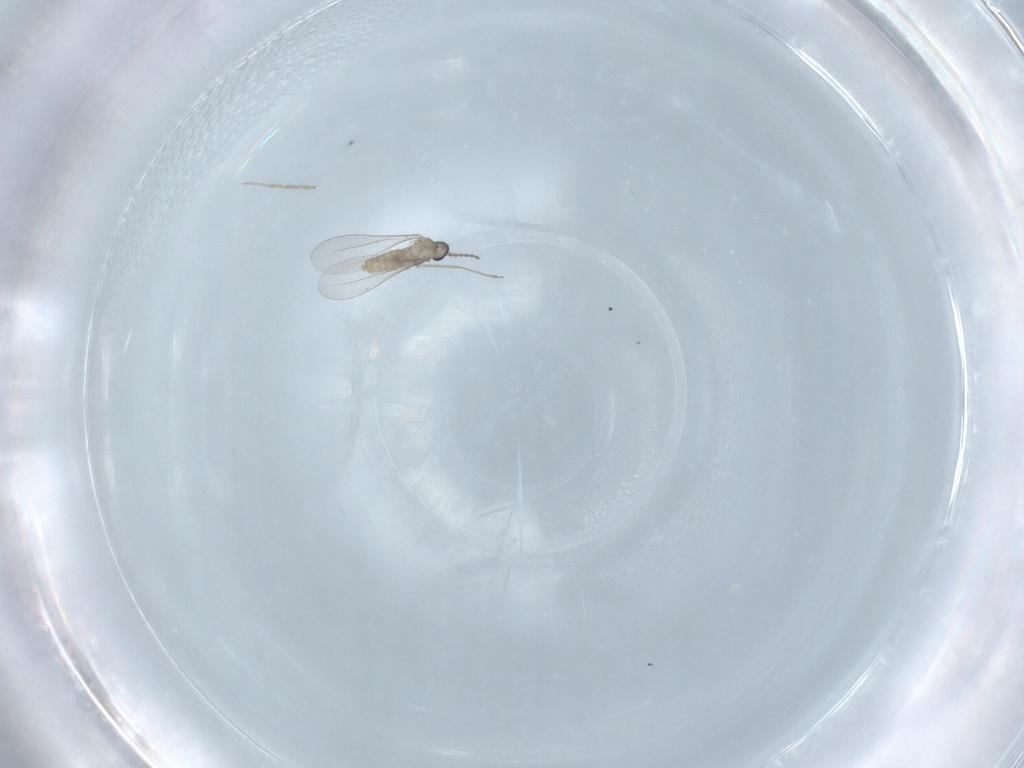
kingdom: Animalia
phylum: Arthropoda
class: Insecta
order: Diptera
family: Cecidomyiidae
